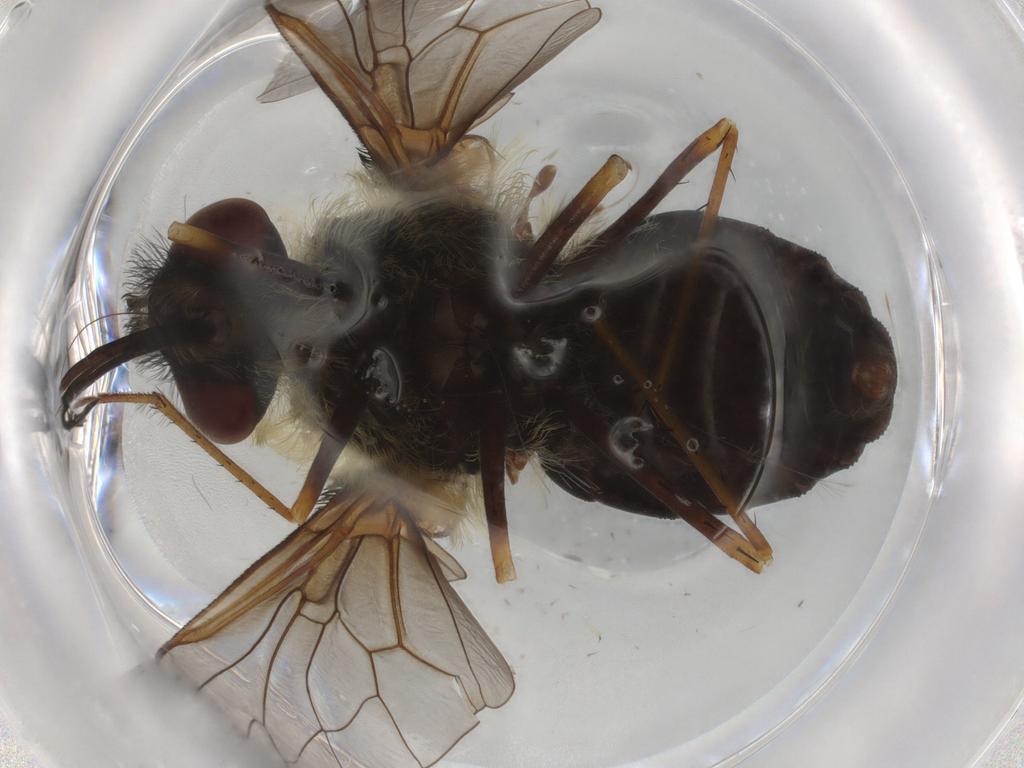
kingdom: Animalia
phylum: Arthropoda
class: Insecta
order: Diptera
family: Bombyliidae
